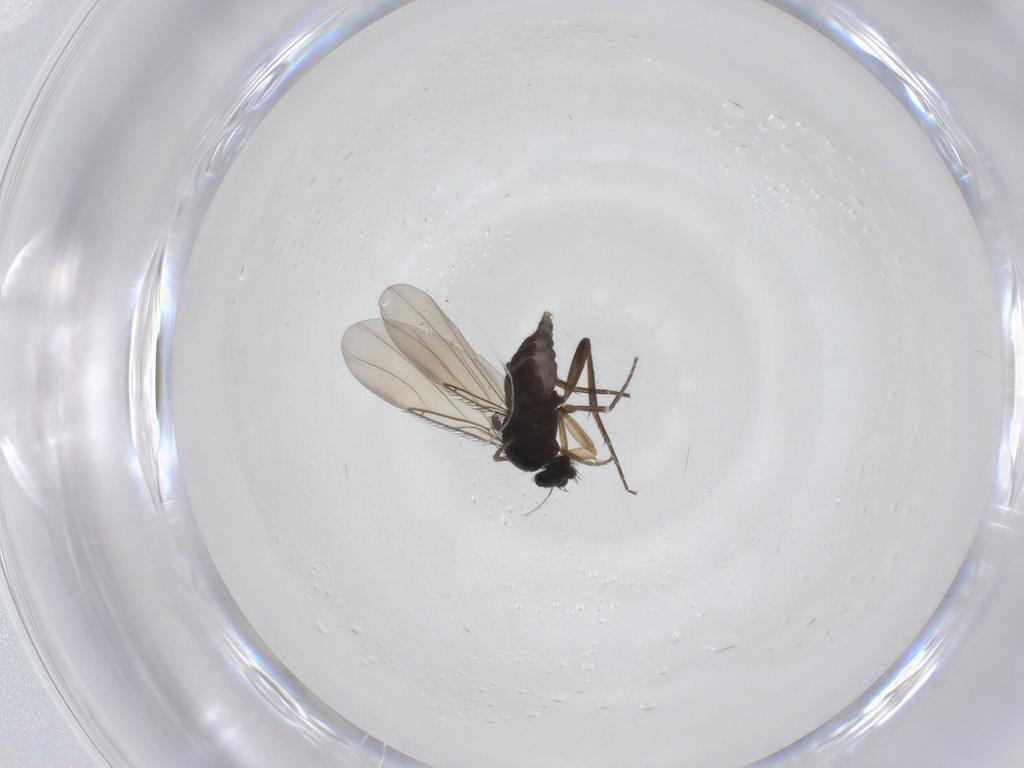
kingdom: Animalia
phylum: Arthropoda
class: Insecta
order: Diptera
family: Phoridae
